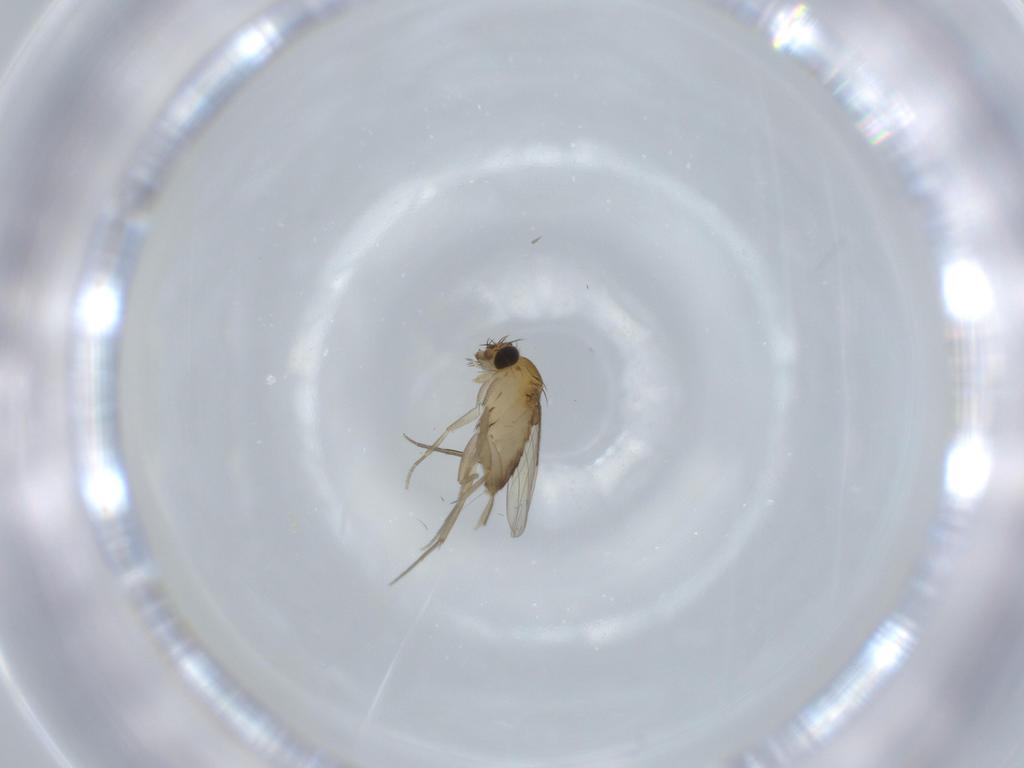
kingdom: Animalia
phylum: Arthropoda
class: Insecta
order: Diptera
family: Phoridae
